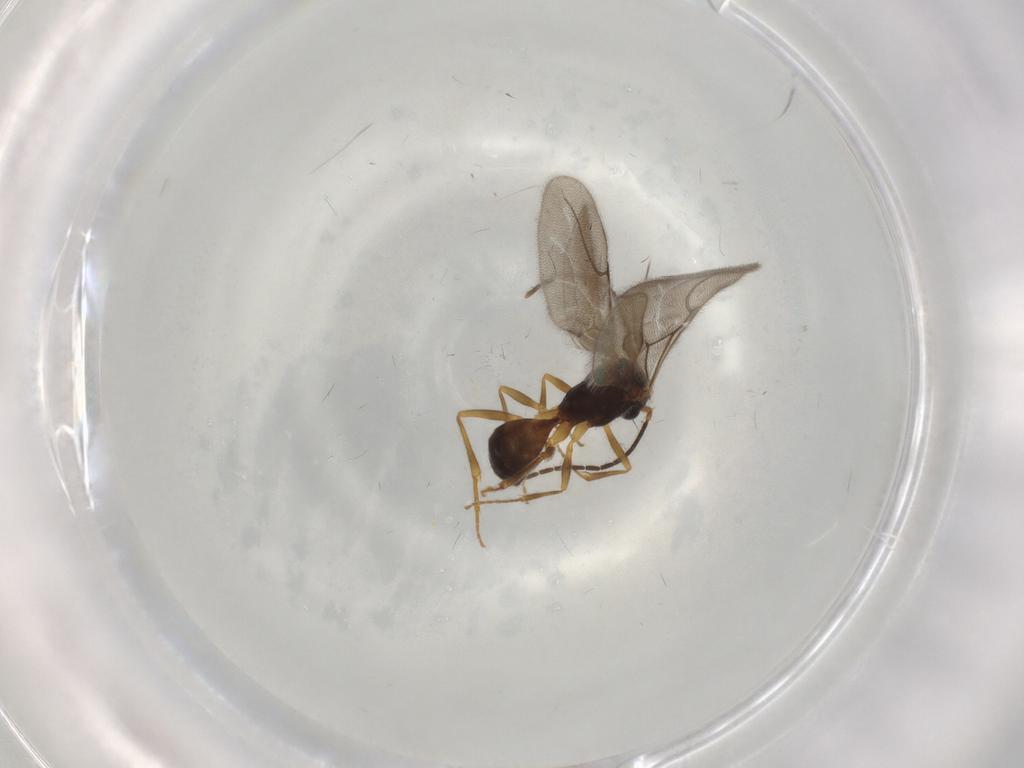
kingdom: Animalia
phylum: Arthropoda
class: Insecta
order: Hymenoptera
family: Bethylidae
